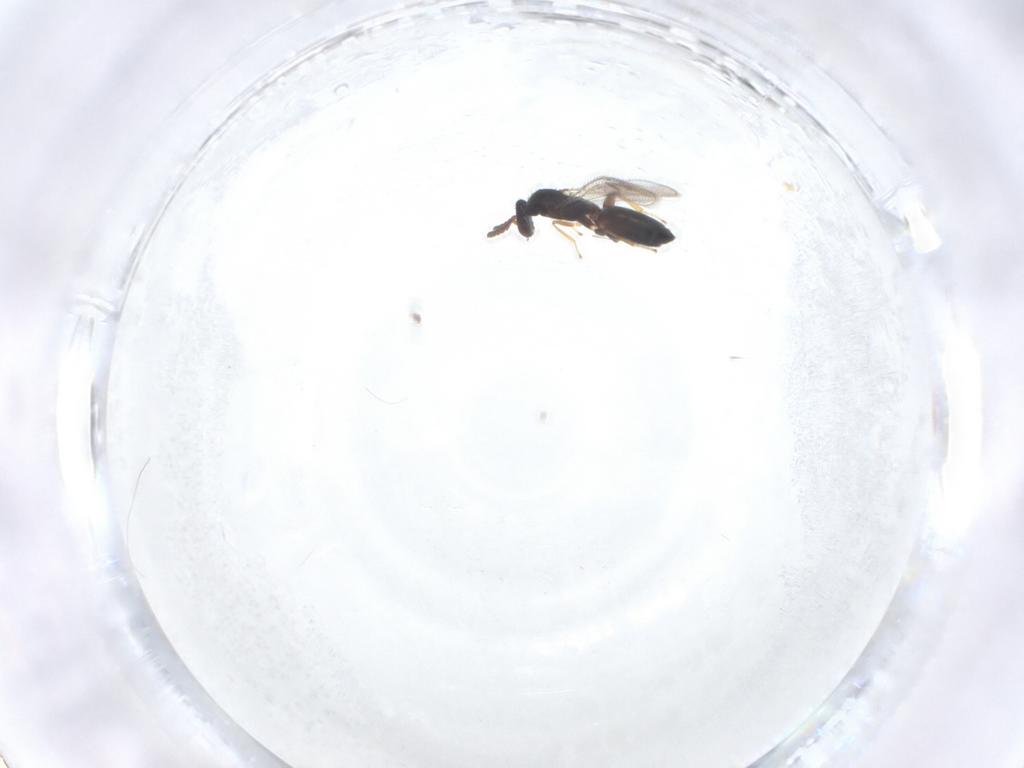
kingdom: Animalia
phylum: Arthropoda
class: Insecta
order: Hymenoptera
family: Eulophidae
